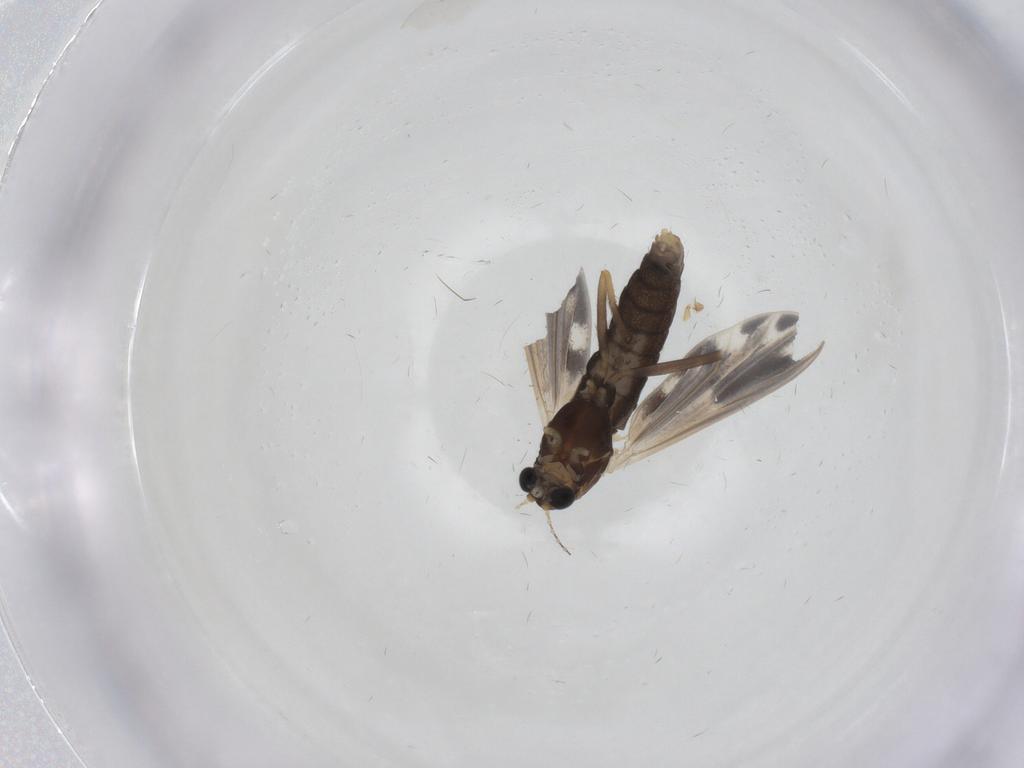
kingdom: Animalia
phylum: Arthropoda
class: Insecta
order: Diptera
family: Chironomidae
